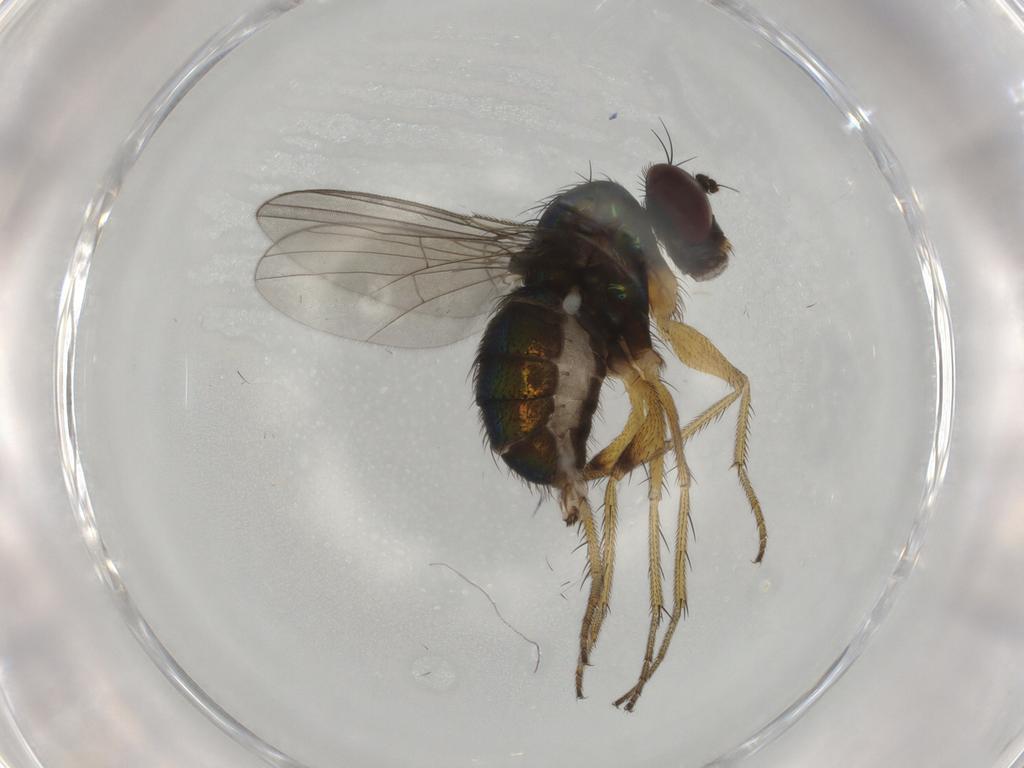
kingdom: Animalia
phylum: Arthropoda
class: Insecta
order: Diptera
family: Dolichopodidae
